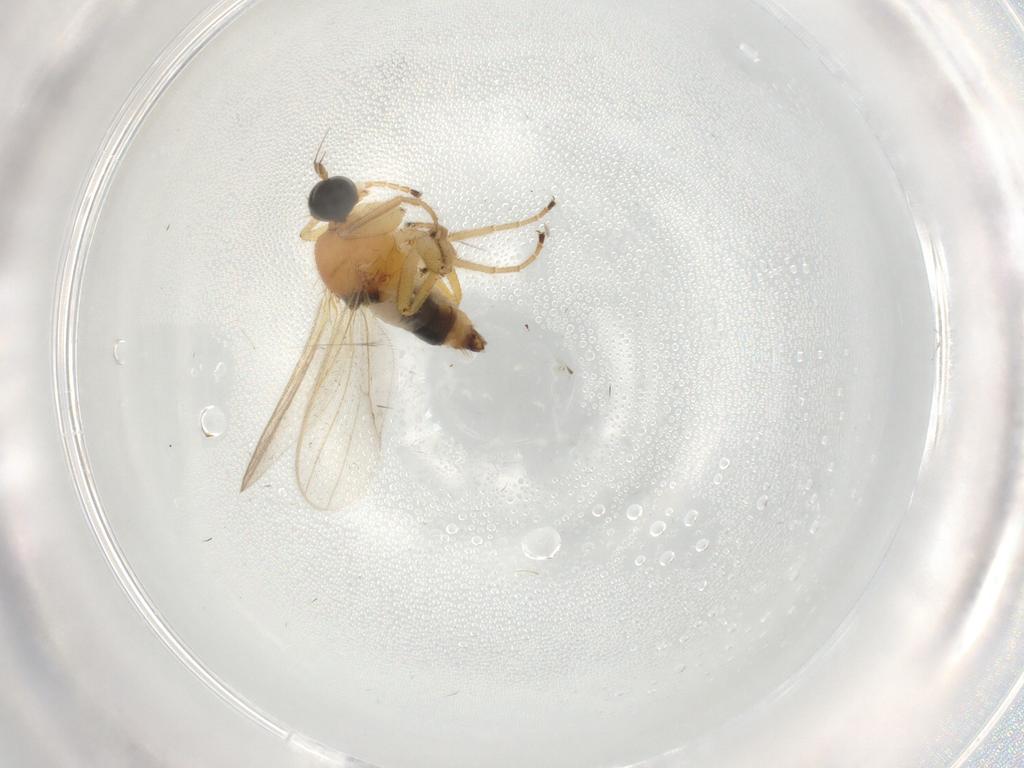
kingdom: Animalia
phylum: Arthropoda
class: Insecta
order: Diptera
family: Hybotidae
